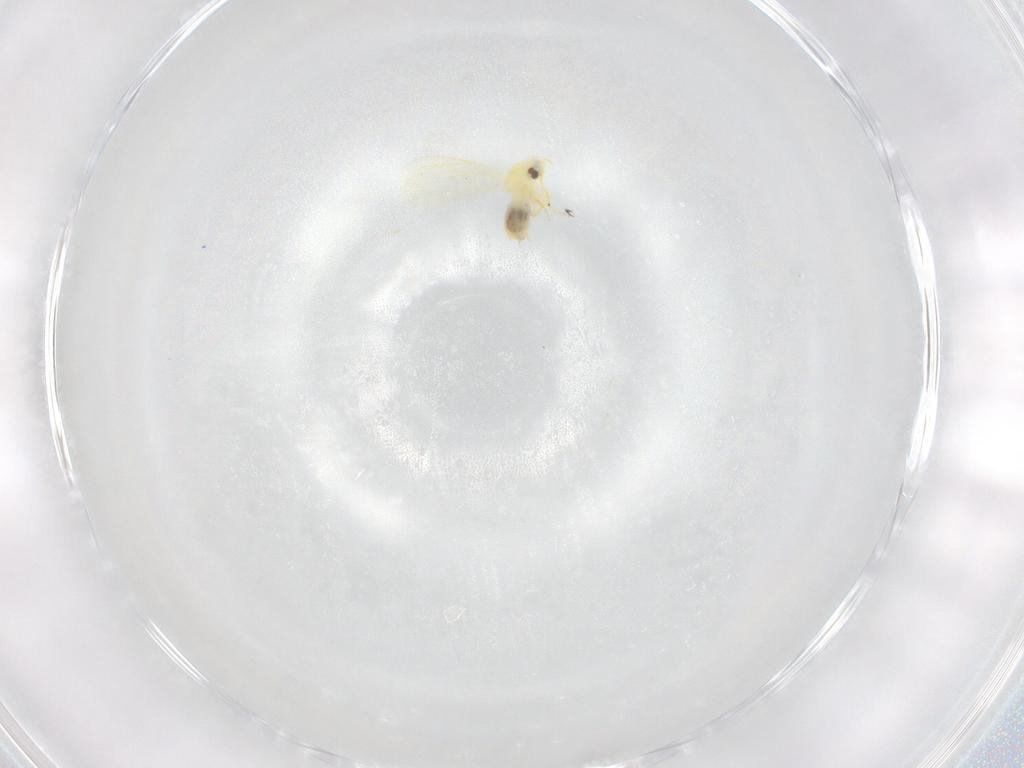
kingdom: Animalia
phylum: Arthropoda
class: Insecta
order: Hemiptera
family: Aleyrodidae
